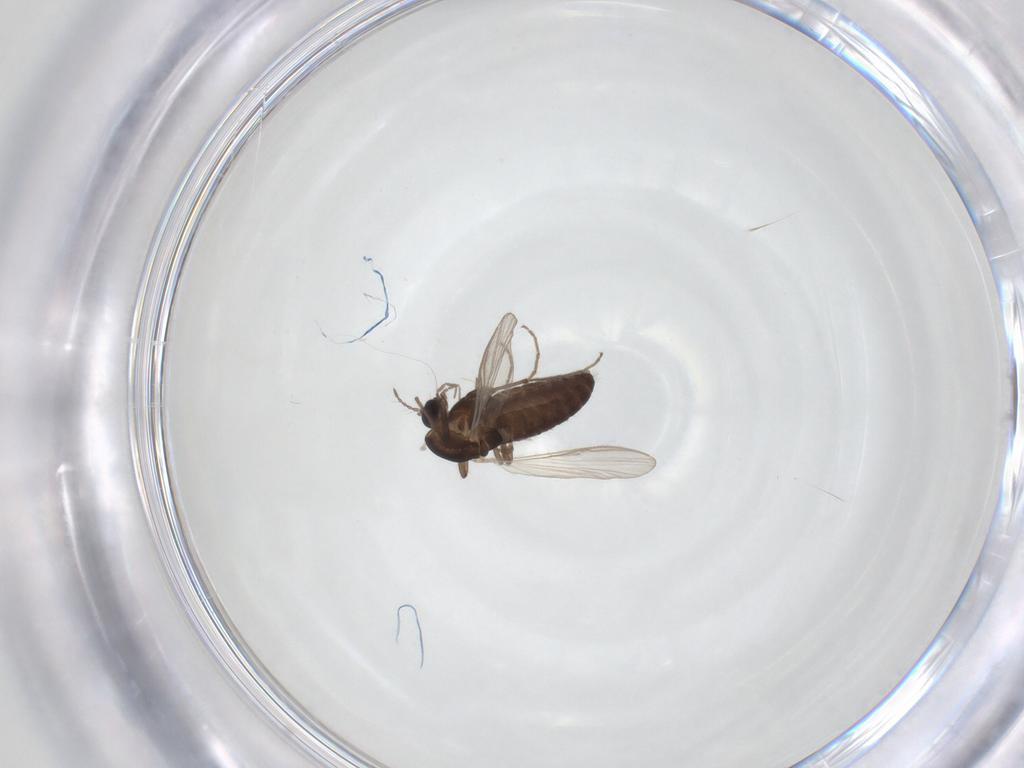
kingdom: Animalia
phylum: Arthropoda
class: Insecta
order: Diptera
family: Chironomidae
